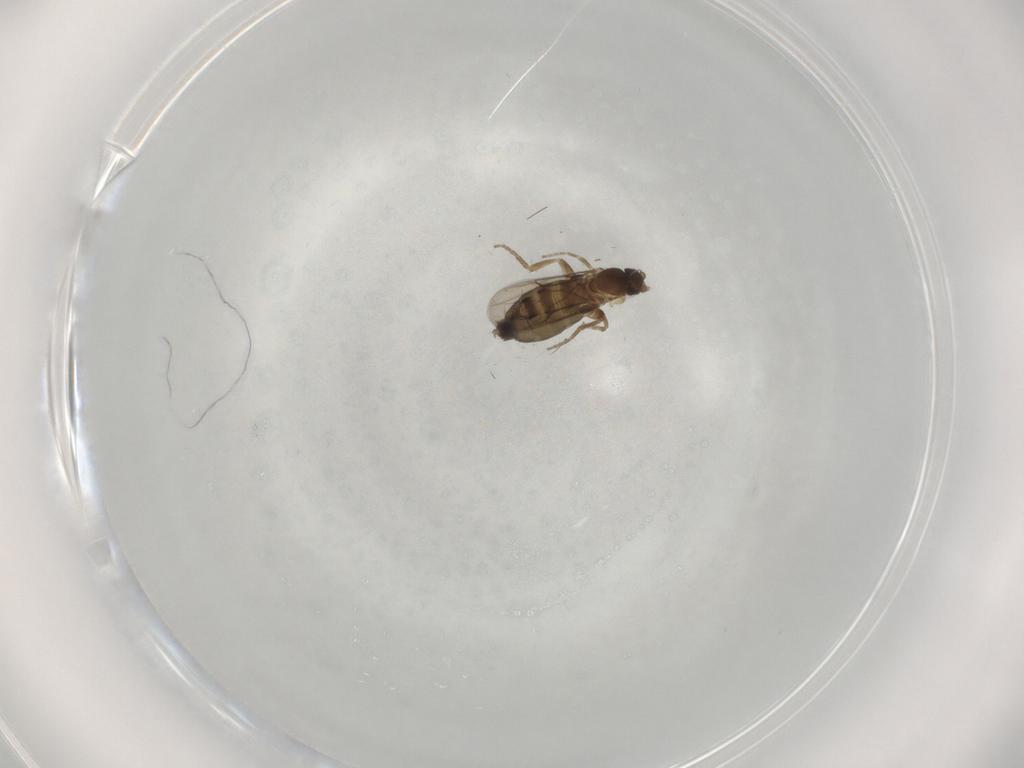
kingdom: Animalia
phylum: Arthropoda
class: Insecta
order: Diptera
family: Phoridae
